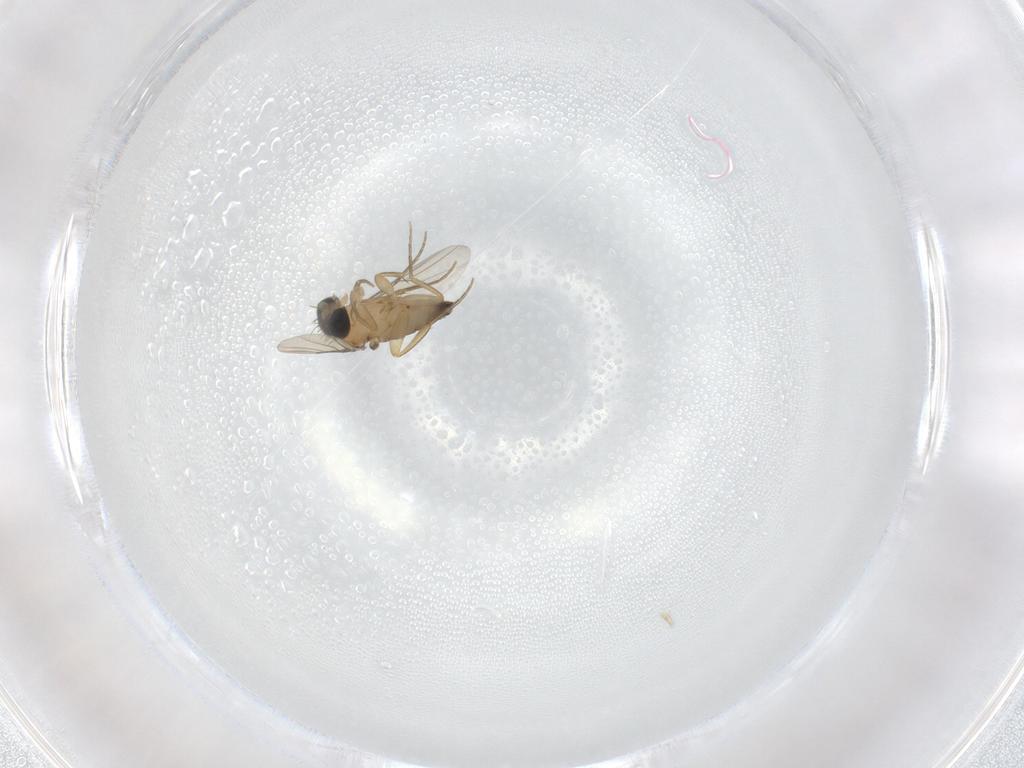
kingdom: Animalia
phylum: Arthropoda
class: Insecta
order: Diptera
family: Phoridae
